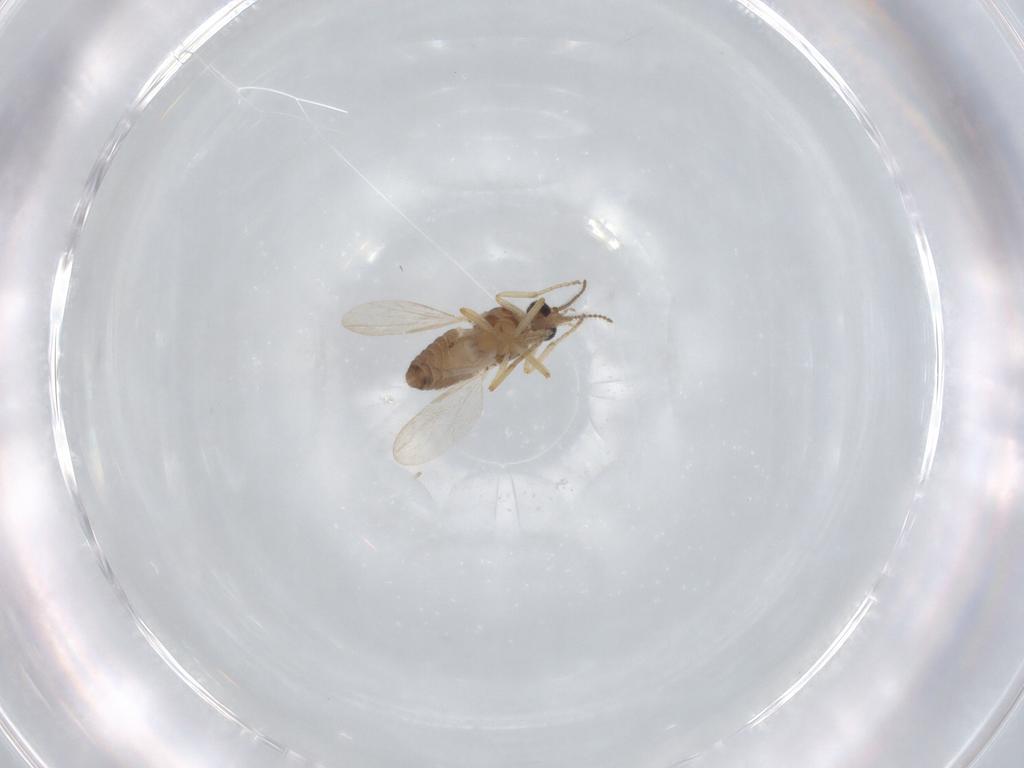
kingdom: Animalia
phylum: Arthropoda
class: Insecta
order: Diptera
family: Ceratopogonidae
